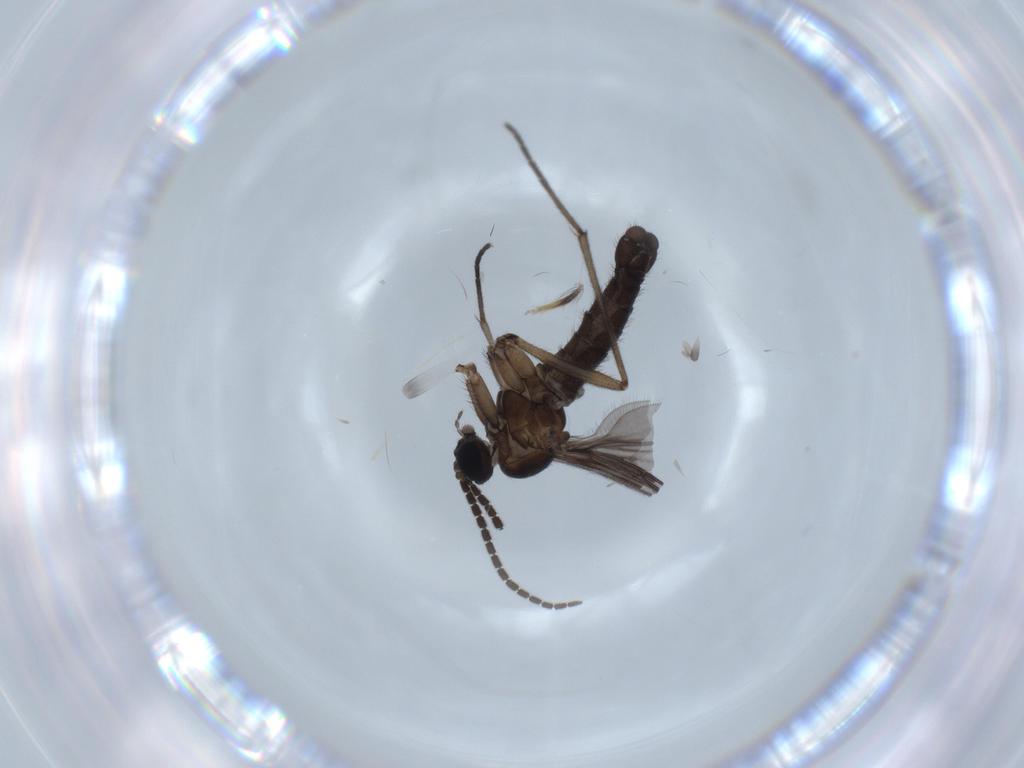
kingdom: Animalia
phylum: Arthropoda
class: Insecta
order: Diptera
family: Sciaridae
